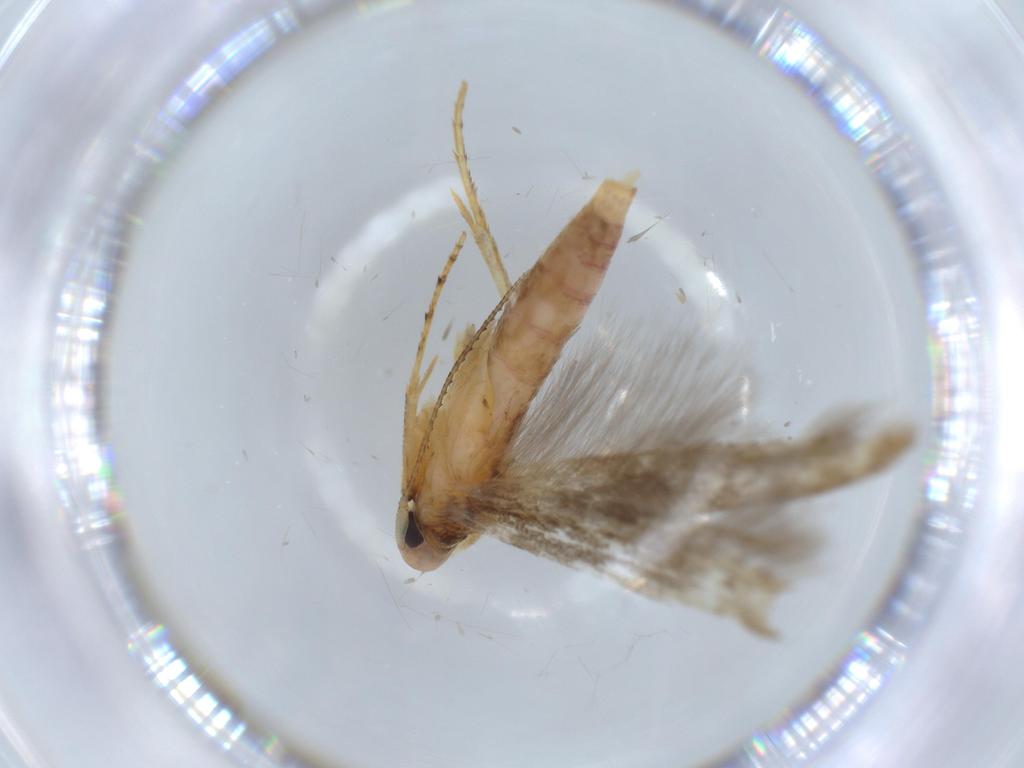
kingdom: Animalia
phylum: Arthropoda
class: Insecta
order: Lepidoptera
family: Heliodinidae
